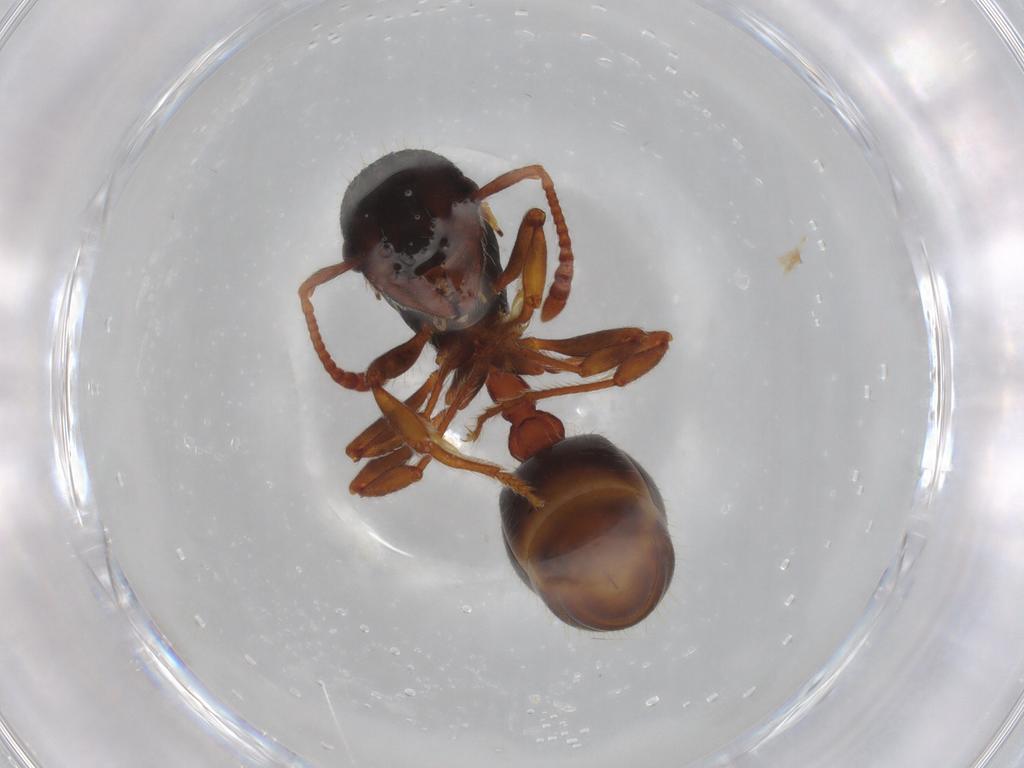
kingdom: Animalia
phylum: Arthropoda
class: Insecta
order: Hymenoptera
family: Formicidae
